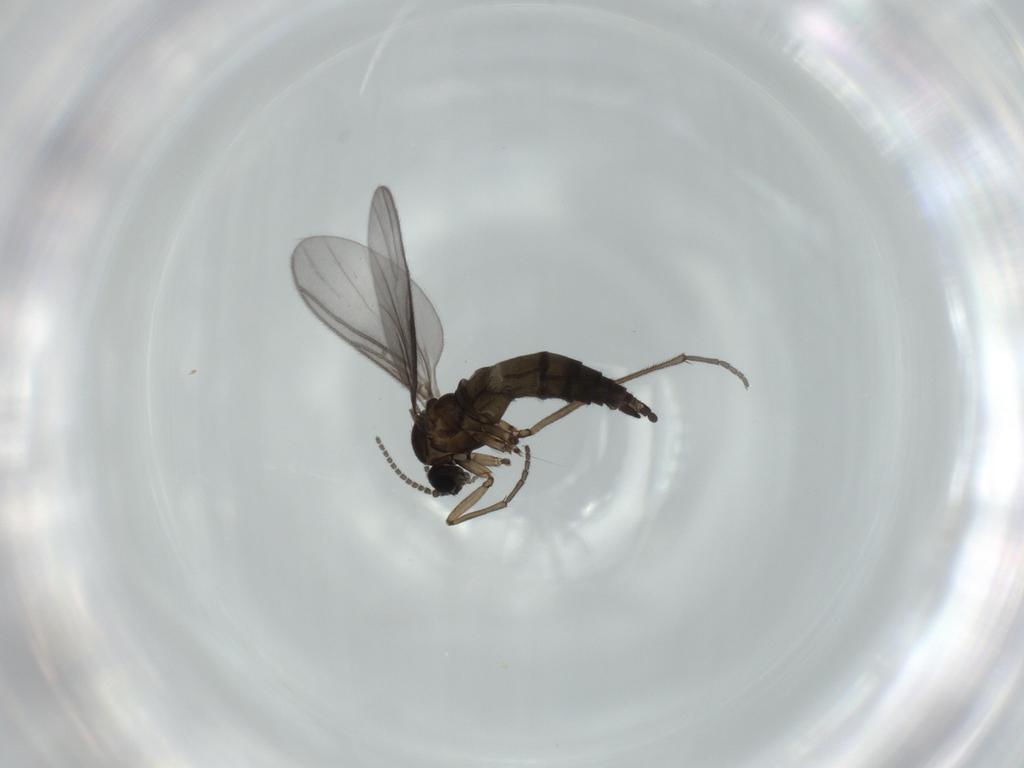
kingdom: Animalia
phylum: Arthropoda
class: Insecta
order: Diptera
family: Sciaridae
